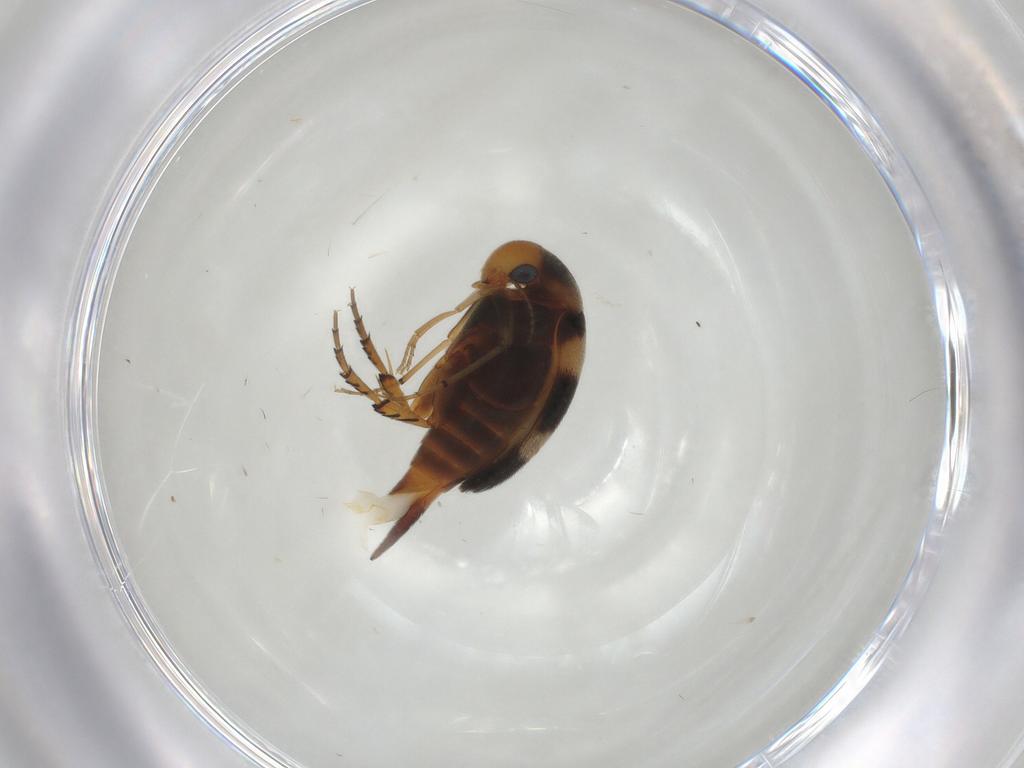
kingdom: Animalia
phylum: Arthropoda
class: Insecta
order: Coleoptera
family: Mordellidae
